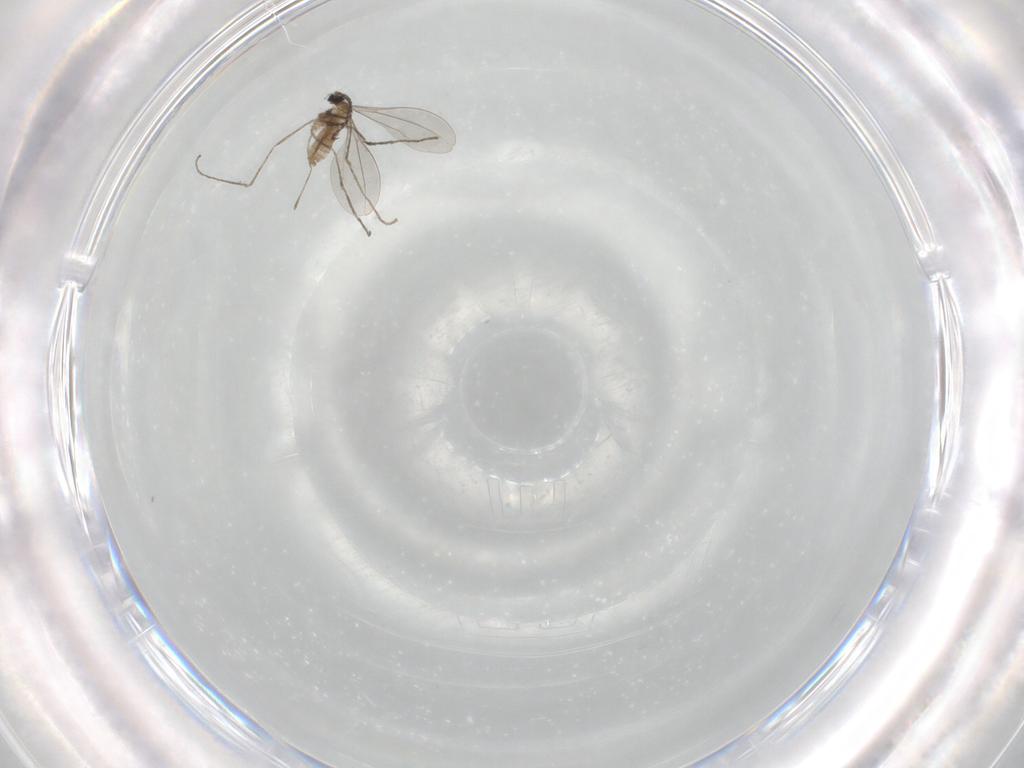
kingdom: Animalia
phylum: Arthropoda
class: Insecta
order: Diptera
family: Cecidomyiidae
